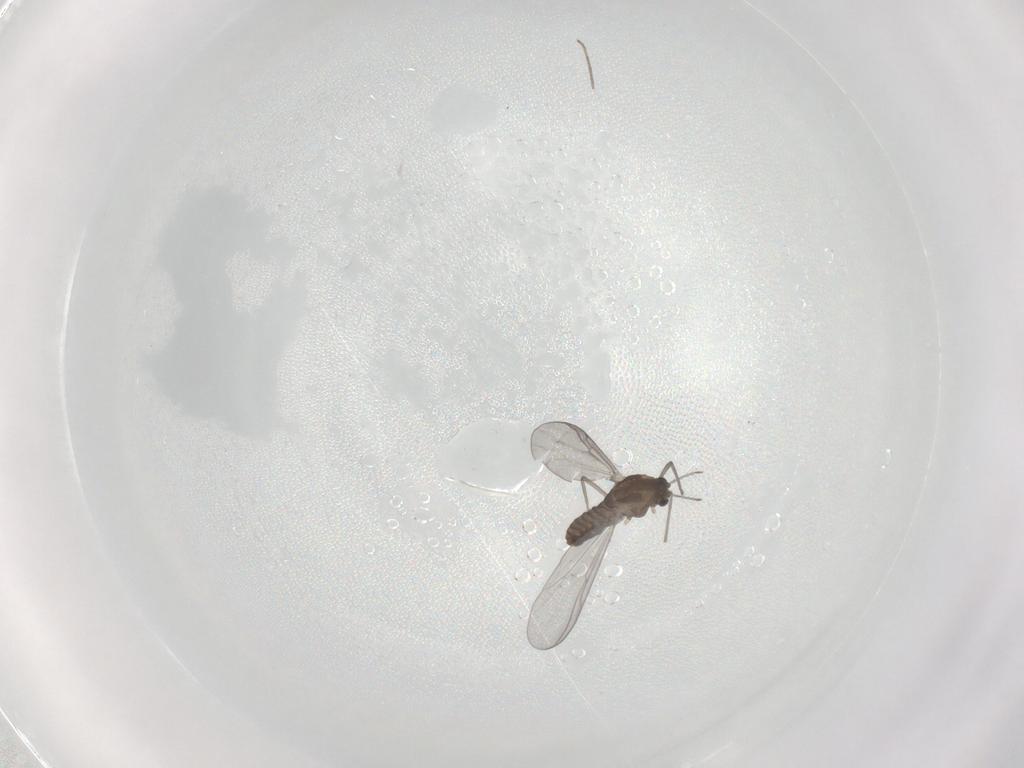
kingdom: Animalia
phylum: Arthropoda
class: Insecta
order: Diptera
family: Chironomidae
